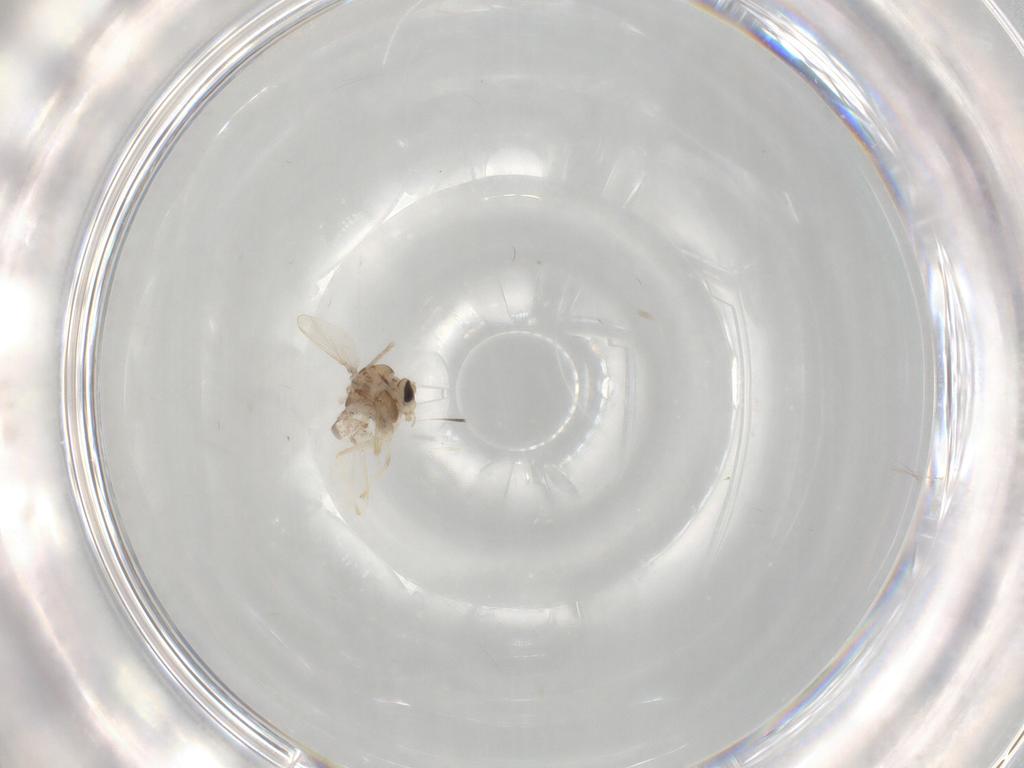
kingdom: Animalia
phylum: Arthropoda
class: Insecta
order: Diptera
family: Chironomidae
